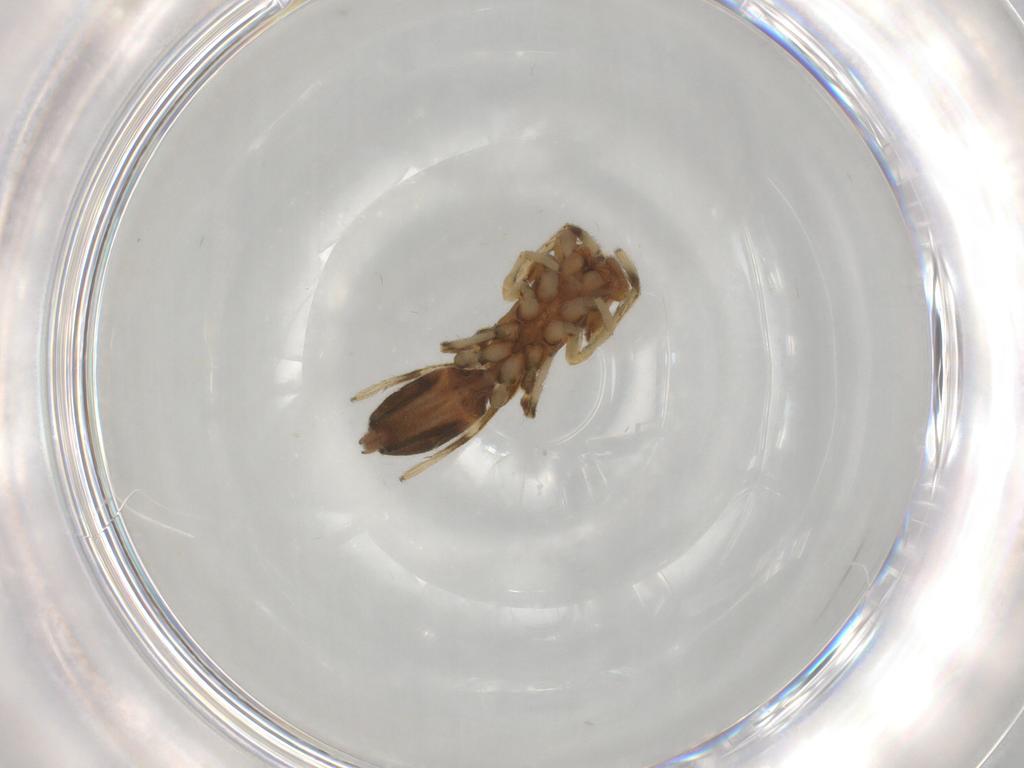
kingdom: Animalia
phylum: Arthropoda
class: Arachnida
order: Araneae
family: Salticidae
